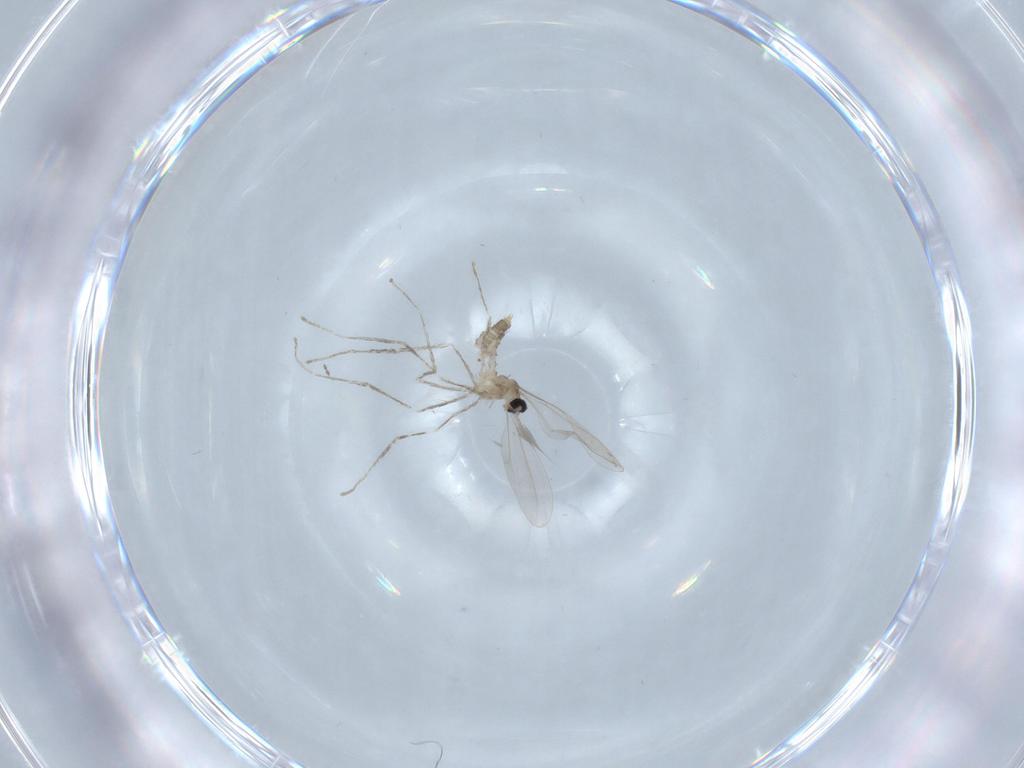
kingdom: Animalia
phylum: Arthropoda
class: Insecta
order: Diptera
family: Cecidomyiidae
